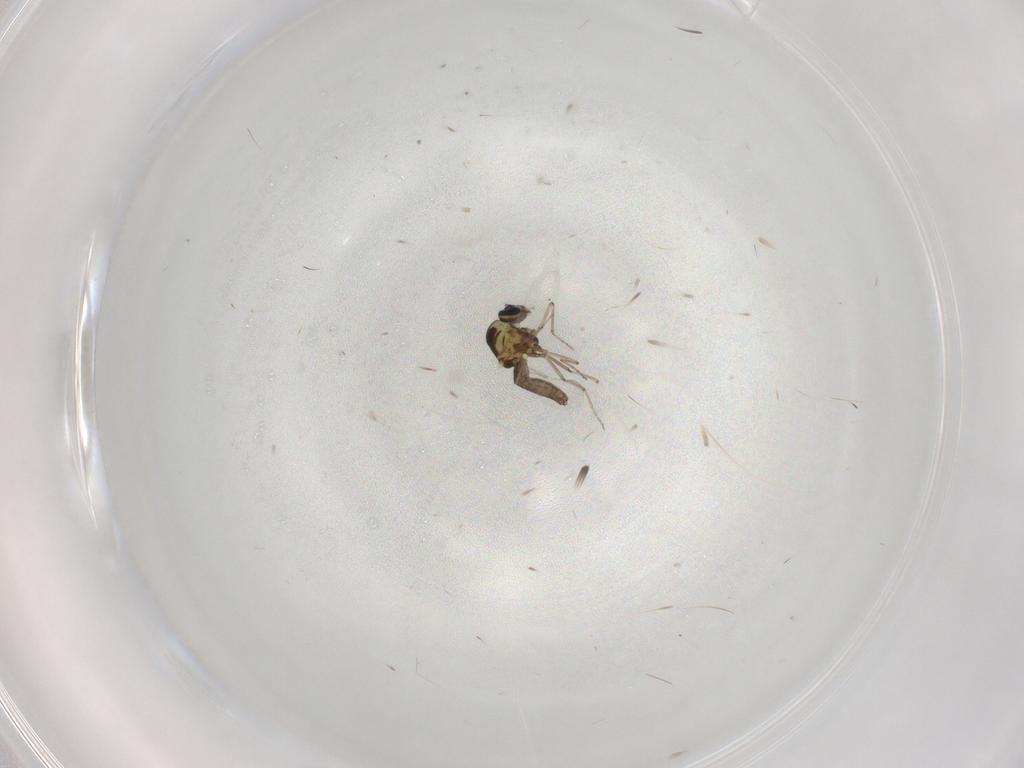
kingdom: Animalia
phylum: Arthropoda
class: Insecta
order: Diptera
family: Ceratopogonidae
